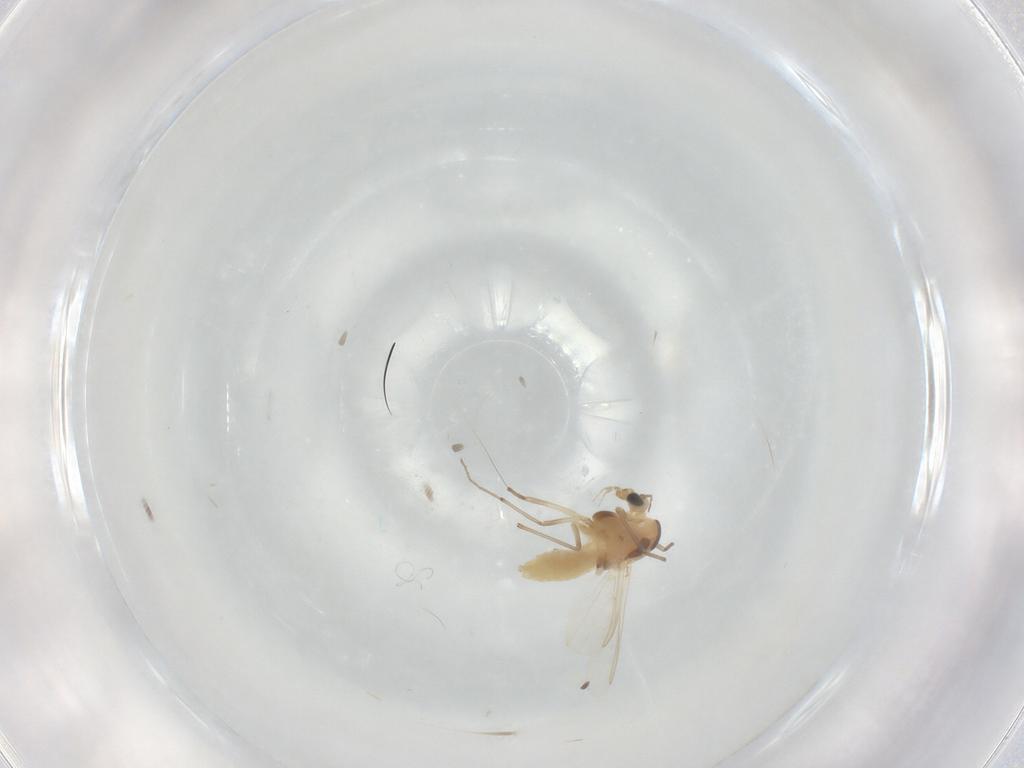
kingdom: Animalia
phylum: Arthropoda
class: Insecta
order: Diptera
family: Chironomidae
